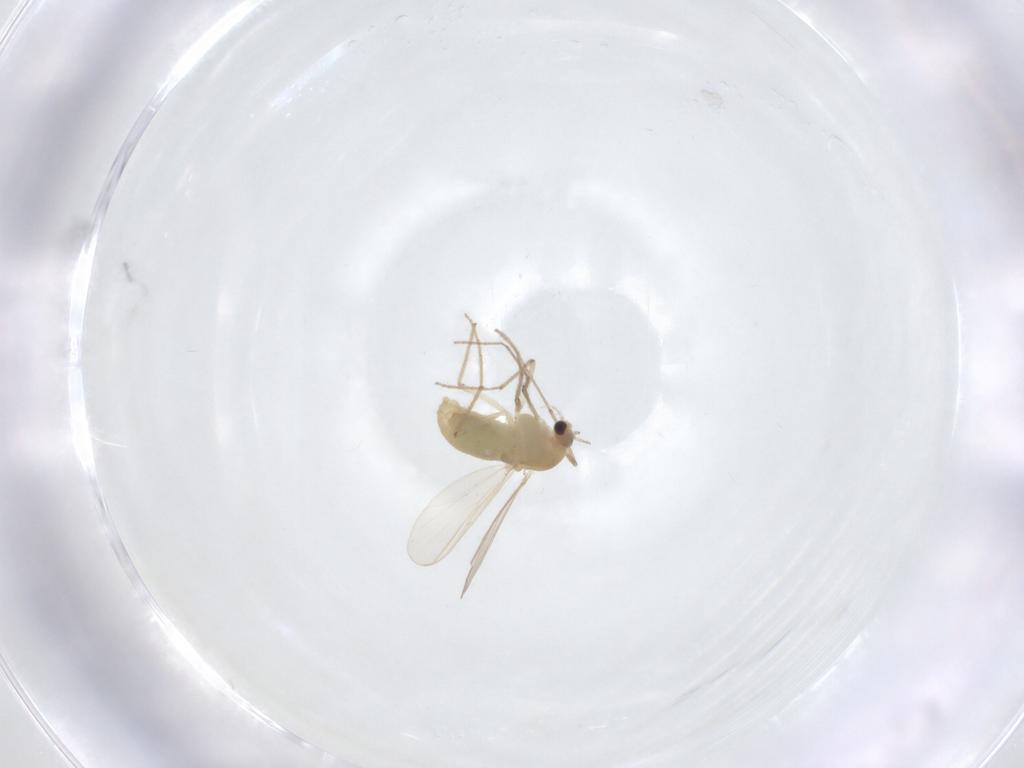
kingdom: Animalia
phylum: Arthropoda
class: Insecta
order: Diptera
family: Chironomidae
